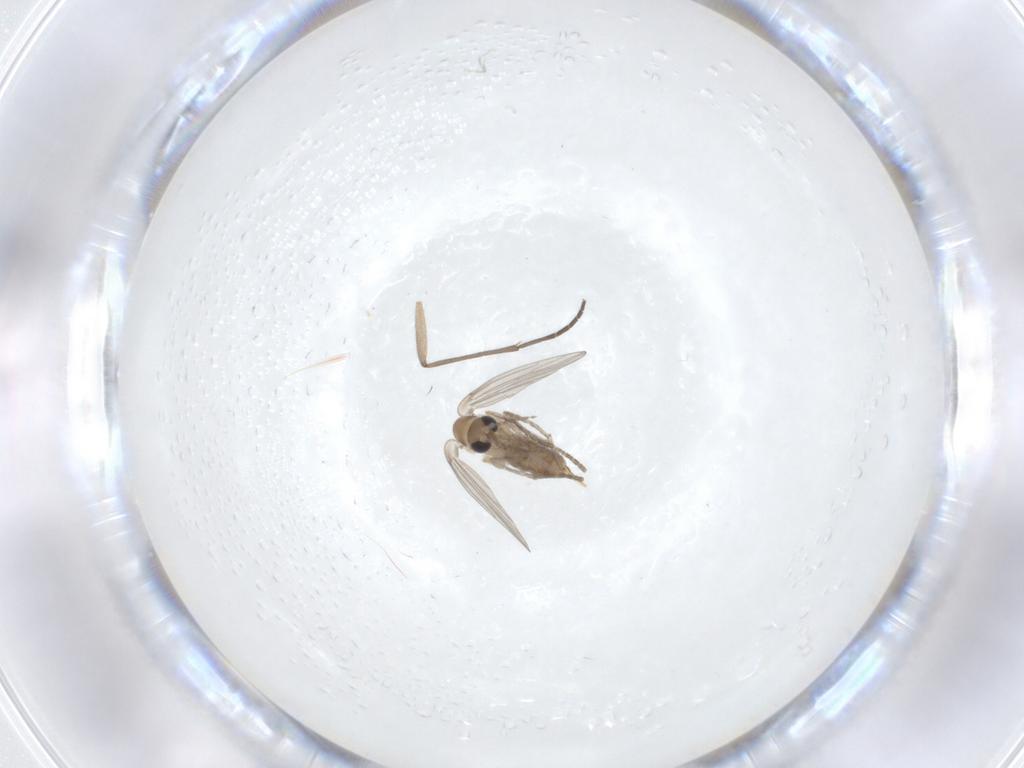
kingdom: Animalia
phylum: Arthropoda
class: Insecta
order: Diptera
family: Sciaridae
